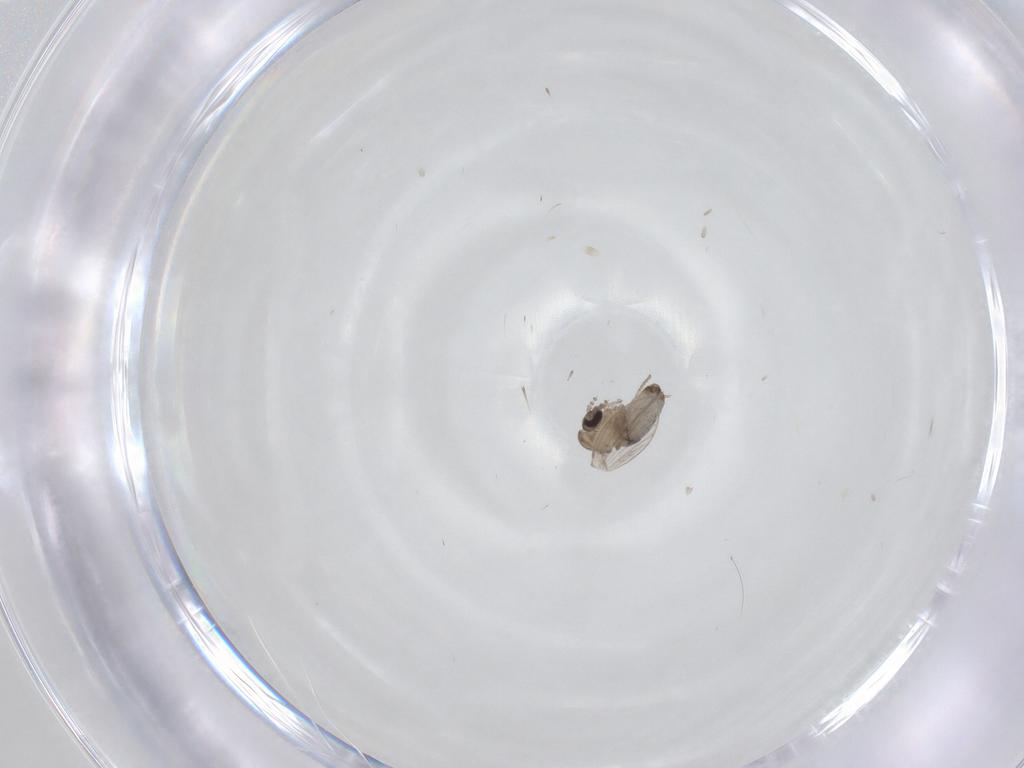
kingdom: Animalia
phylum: Arthropoda
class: Insecta
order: Diptera
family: Psychodidae
